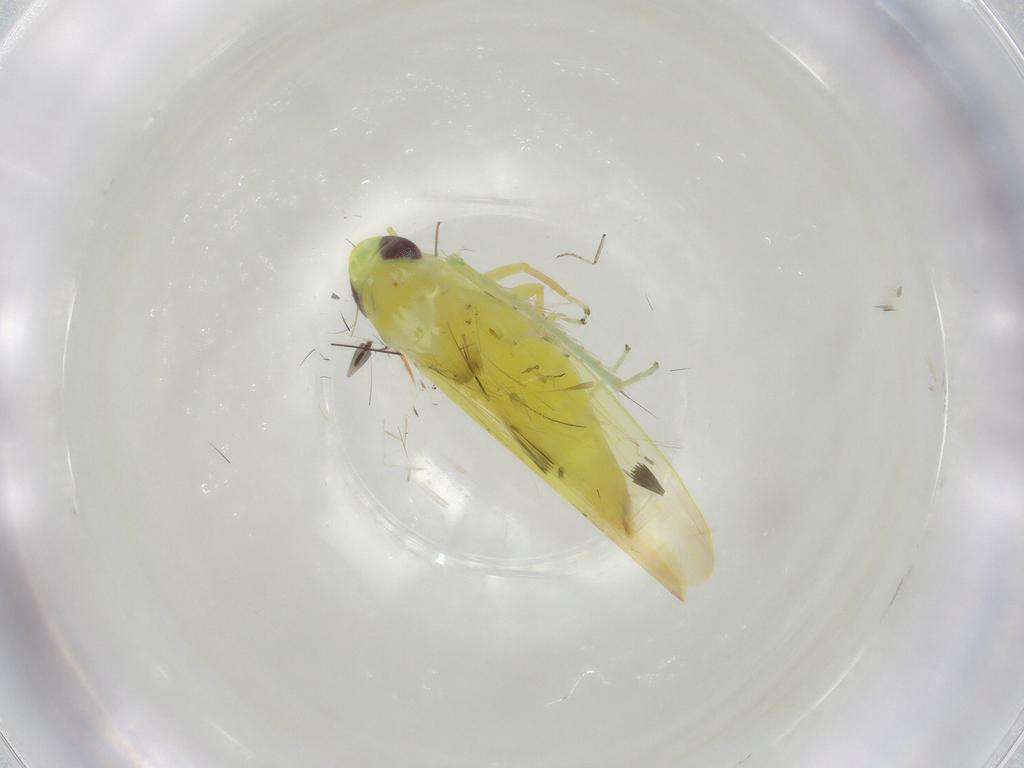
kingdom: Animalia
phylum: Arthropoda
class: Insecta
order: Hemiptera
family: Cicadellidae
